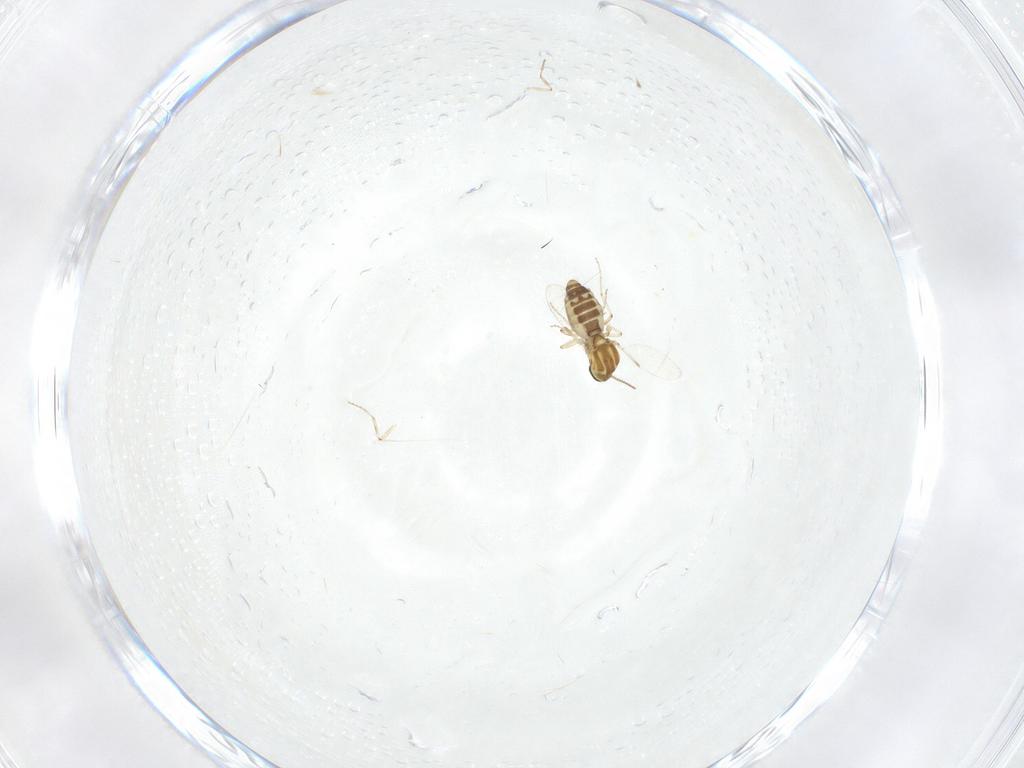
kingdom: Animalia
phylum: Arthropoda
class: Insecta
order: Diptera
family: Ceratopogonidae
